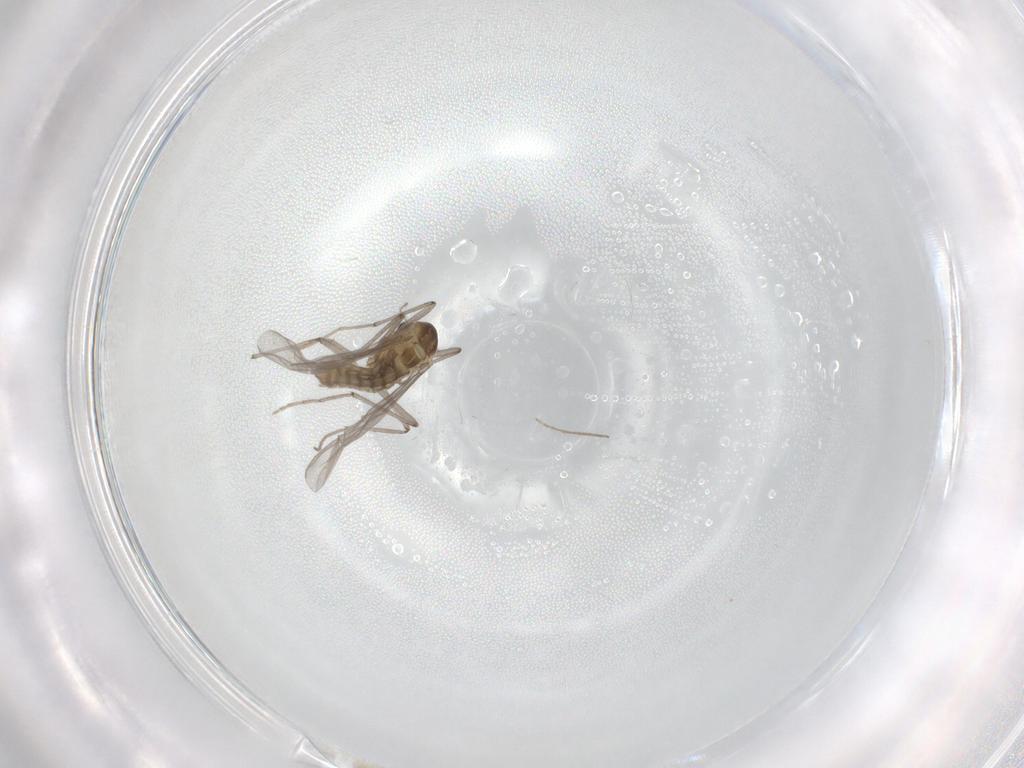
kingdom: Animalia
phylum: Arthropoda
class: Insecta
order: Diptera
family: Chironomidae
